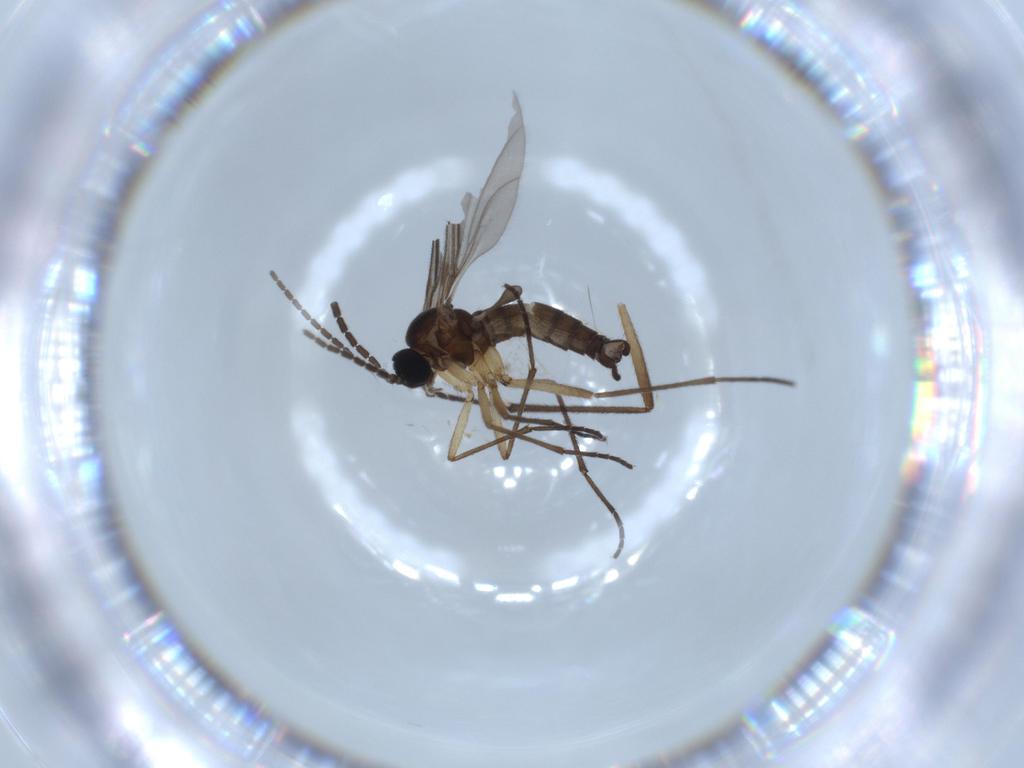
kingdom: Animalia
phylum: Arthropoda
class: Insecta
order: Diptera
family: Sciaridae
